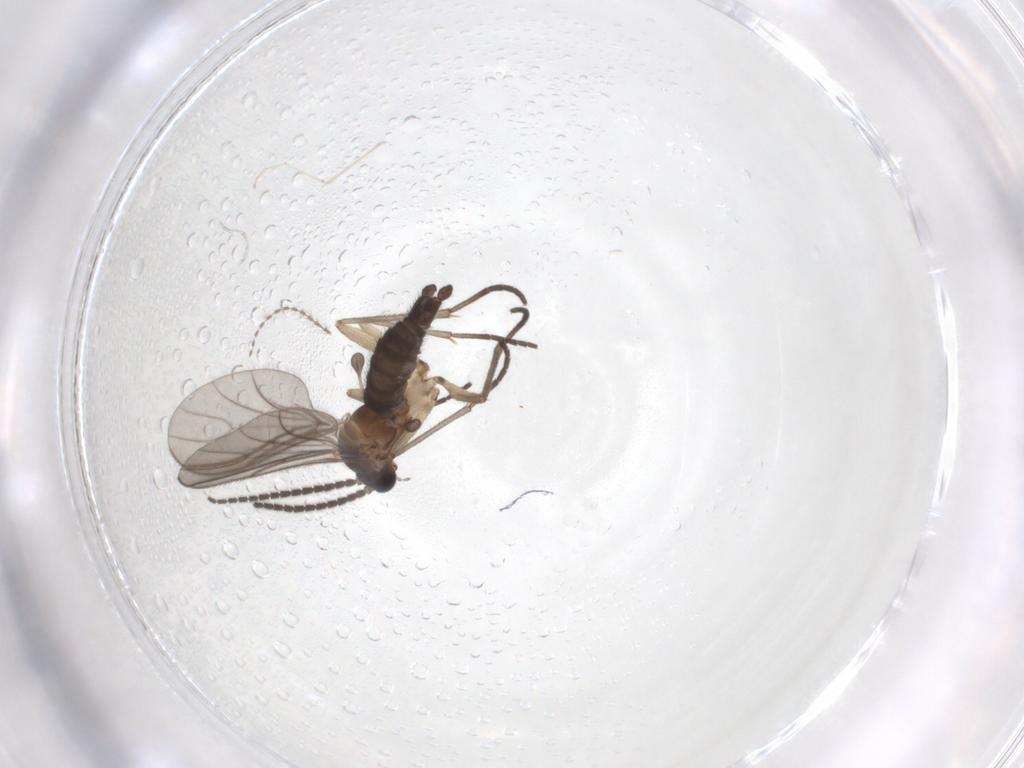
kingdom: Animalia
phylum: Arthropoda
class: Insecta
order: Diptera
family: Sciaridae
